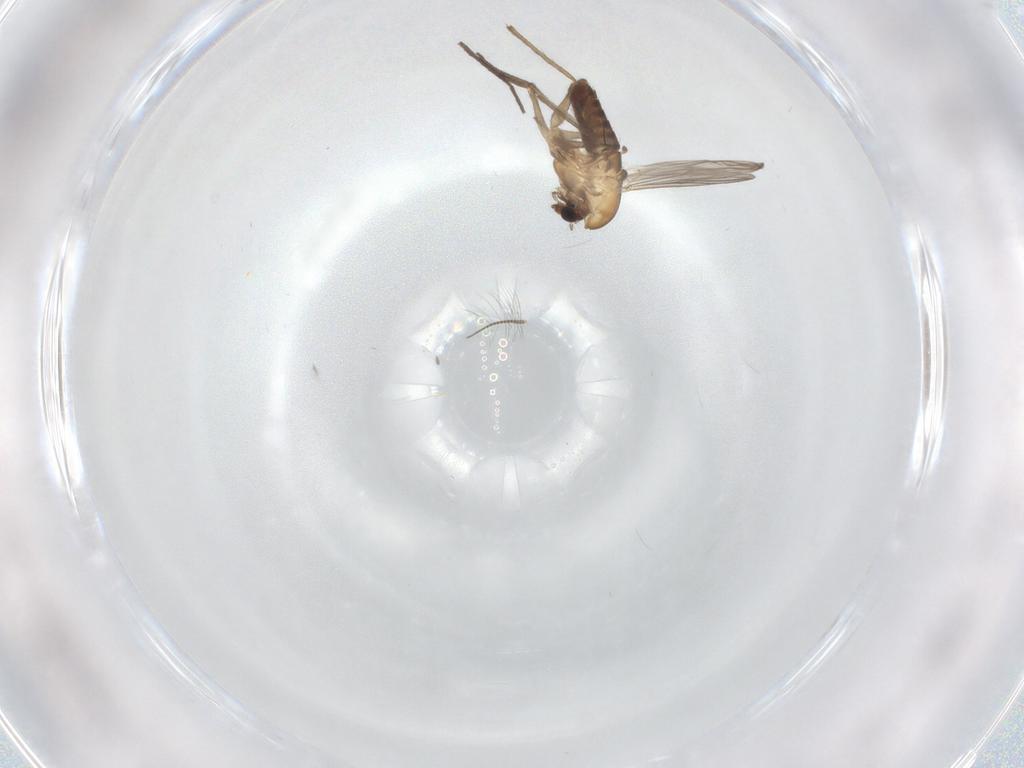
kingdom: Animalia
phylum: Arthropoda
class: Insecta
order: Diptera
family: Chironomidae
